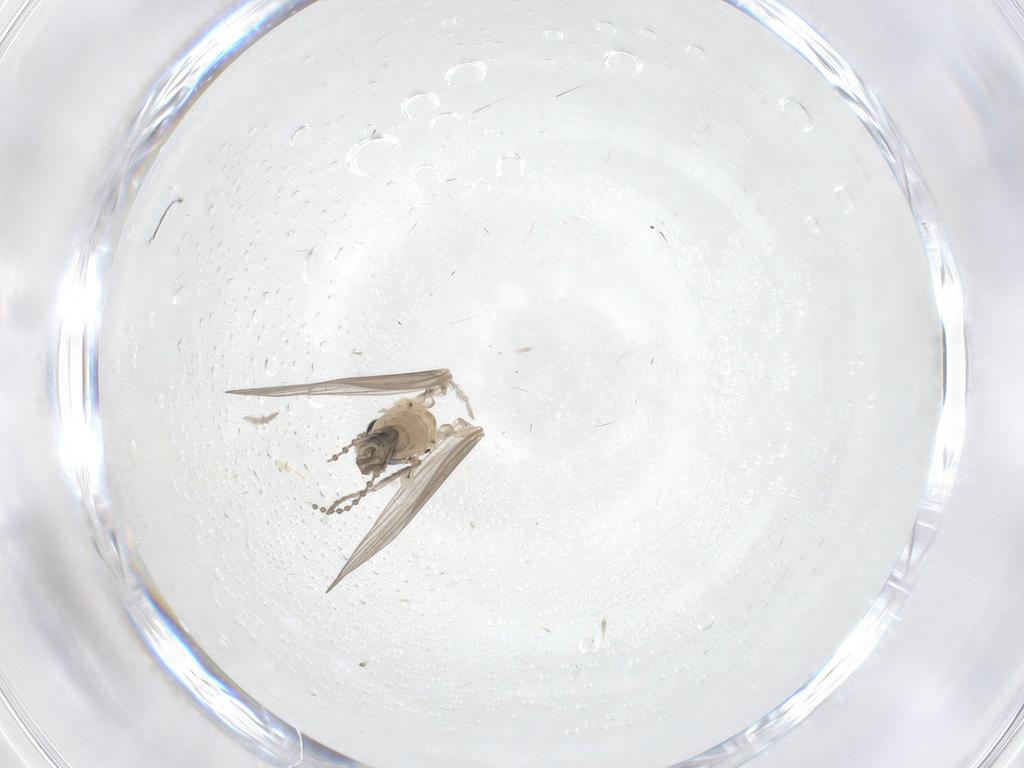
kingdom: Animalia
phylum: Arthropoda
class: Insecta
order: Diptera
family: Psychodidae
